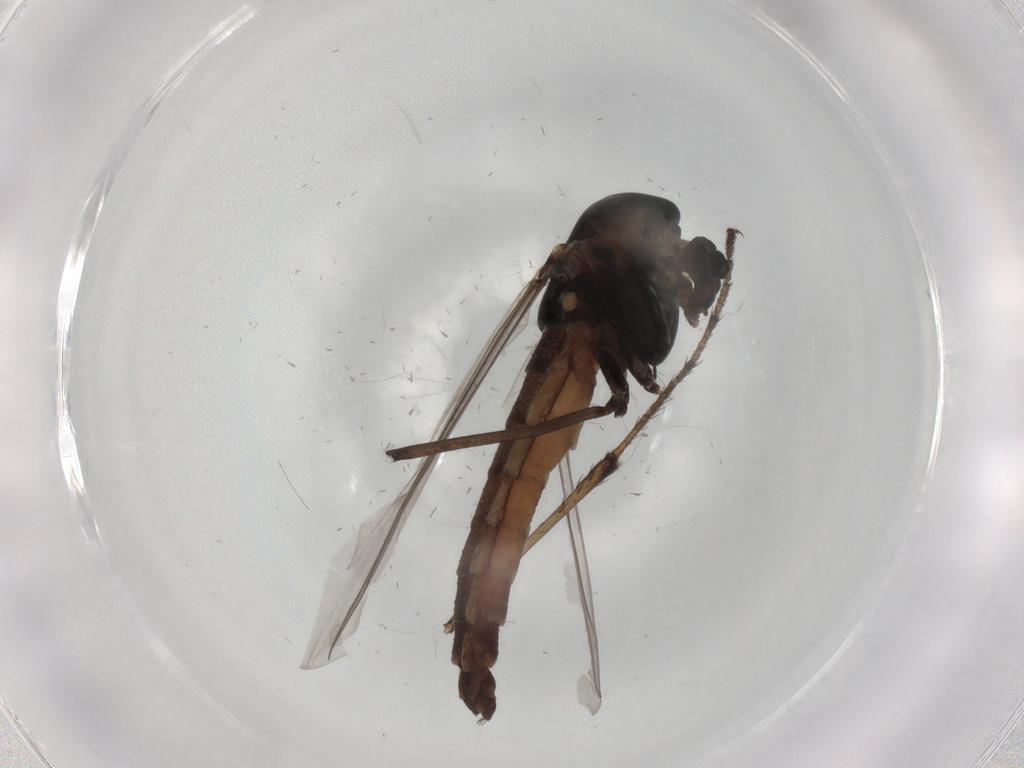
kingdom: Animalia
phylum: Arthropoda
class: Insecta
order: Diptera
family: Chironomidae
